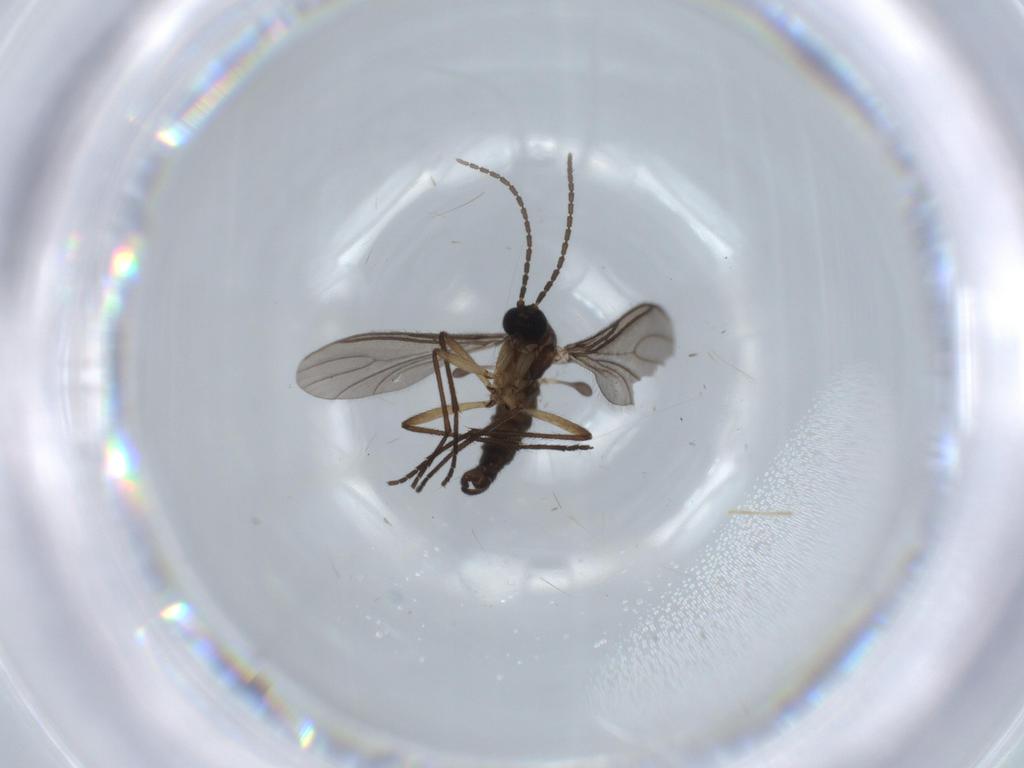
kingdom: Animalia
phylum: Arthropoda
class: Insecta
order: Diptera
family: Sciaridae
